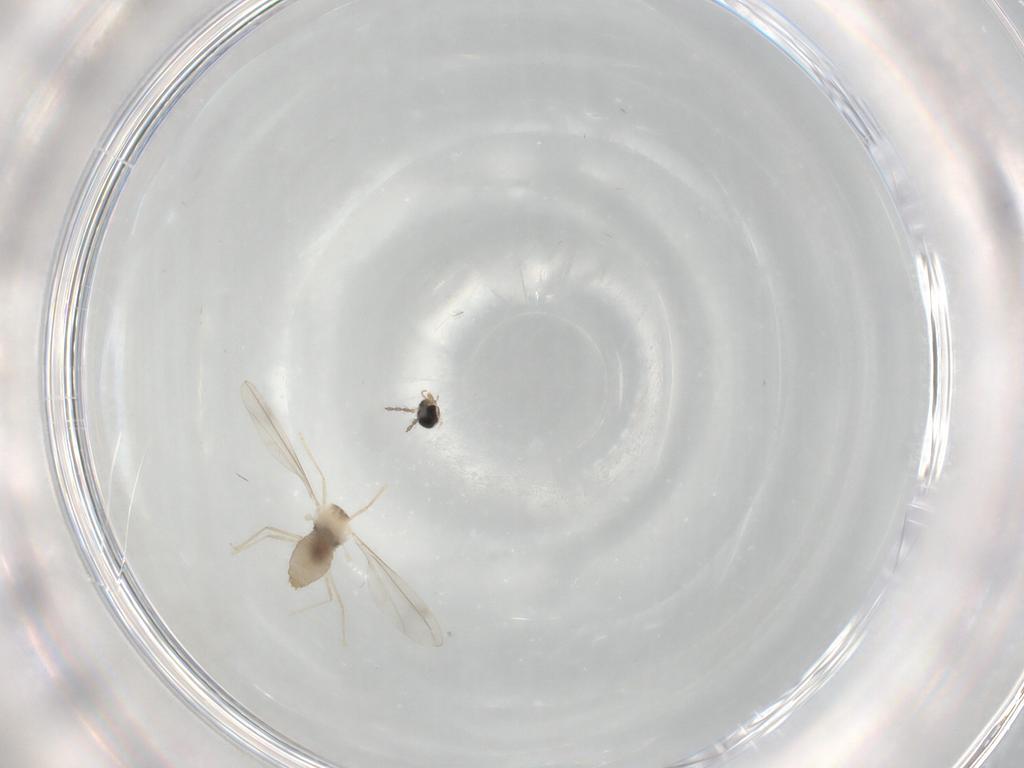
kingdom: Animalia
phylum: Arthropoda
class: Insecta
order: Diptera
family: Cecidomyiidae
